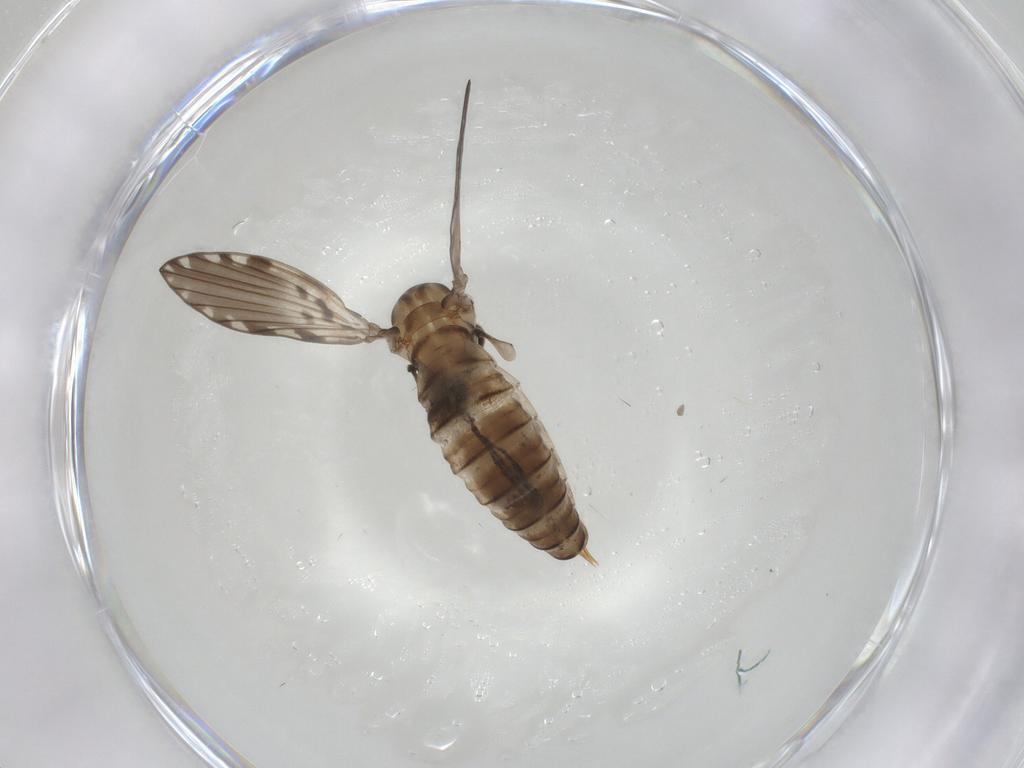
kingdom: Animalia
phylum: Arthropoda
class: Insecta
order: Diptera
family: Psychodidae
